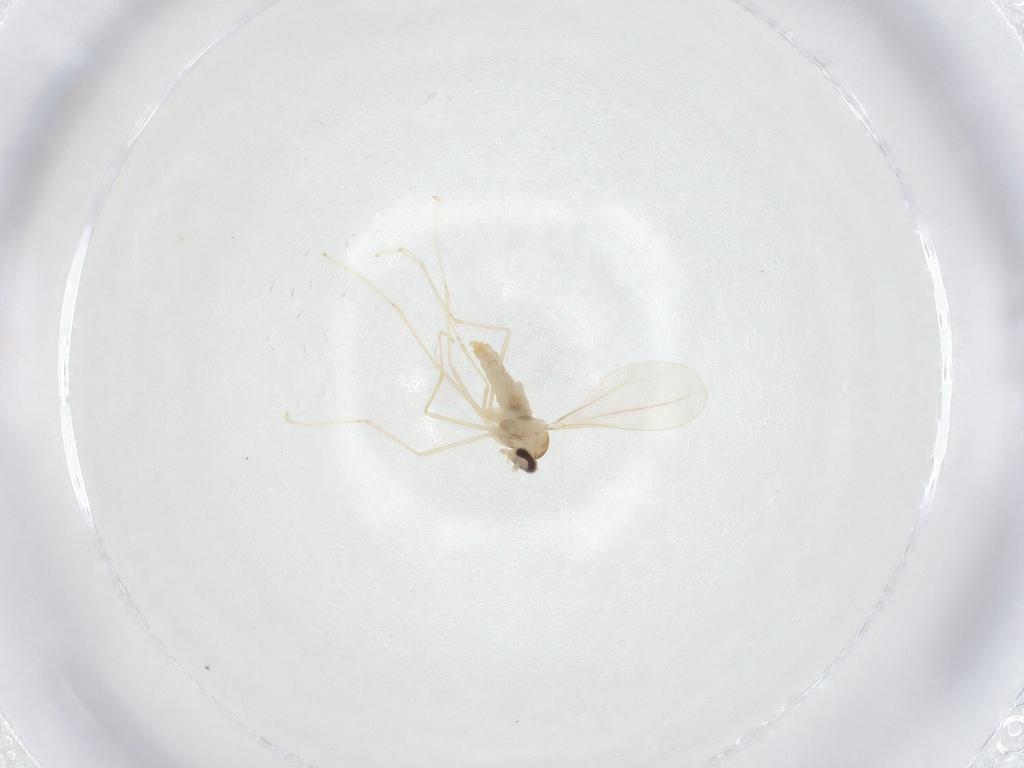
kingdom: Animalia
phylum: Arthropoda
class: Insecta
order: Diptera
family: Cecidomyiidae
